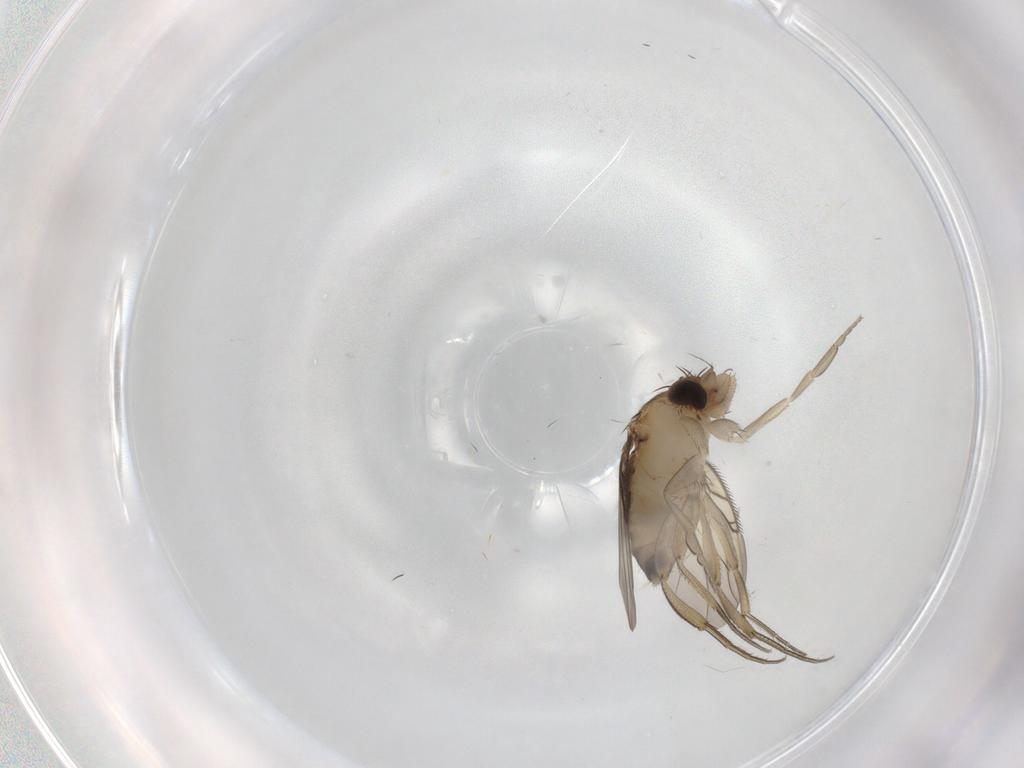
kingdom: Animalia
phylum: Arthropoda
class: Insecta
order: Diptera
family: Phoridae
